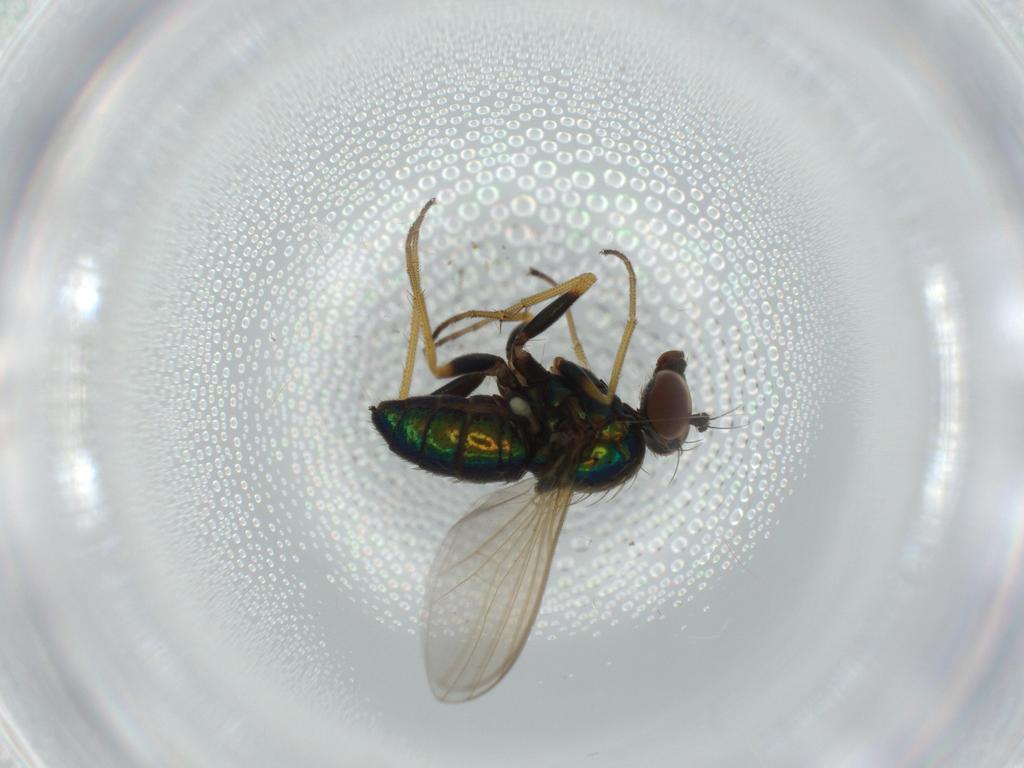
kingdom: Animalia
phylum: Arthropoda
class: Insecta
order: Diptera
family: Dolichopodidae
